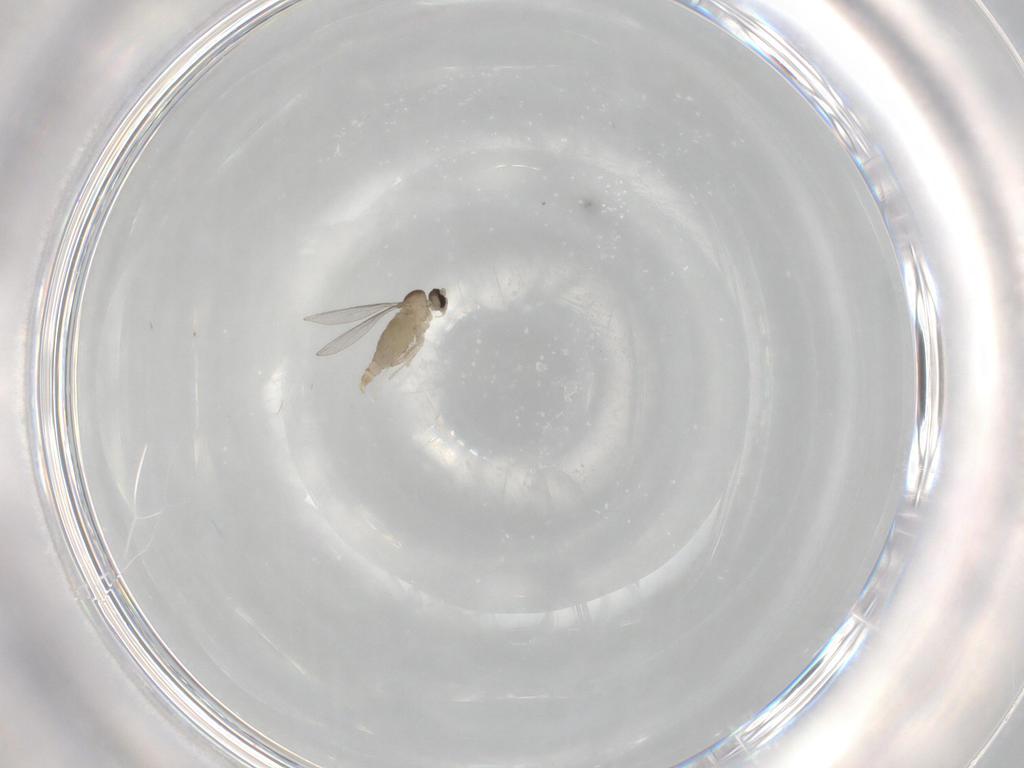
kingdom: Animalia
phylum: Arthropoda
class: Insecta
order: Diptera
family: Cecidomyiidae
